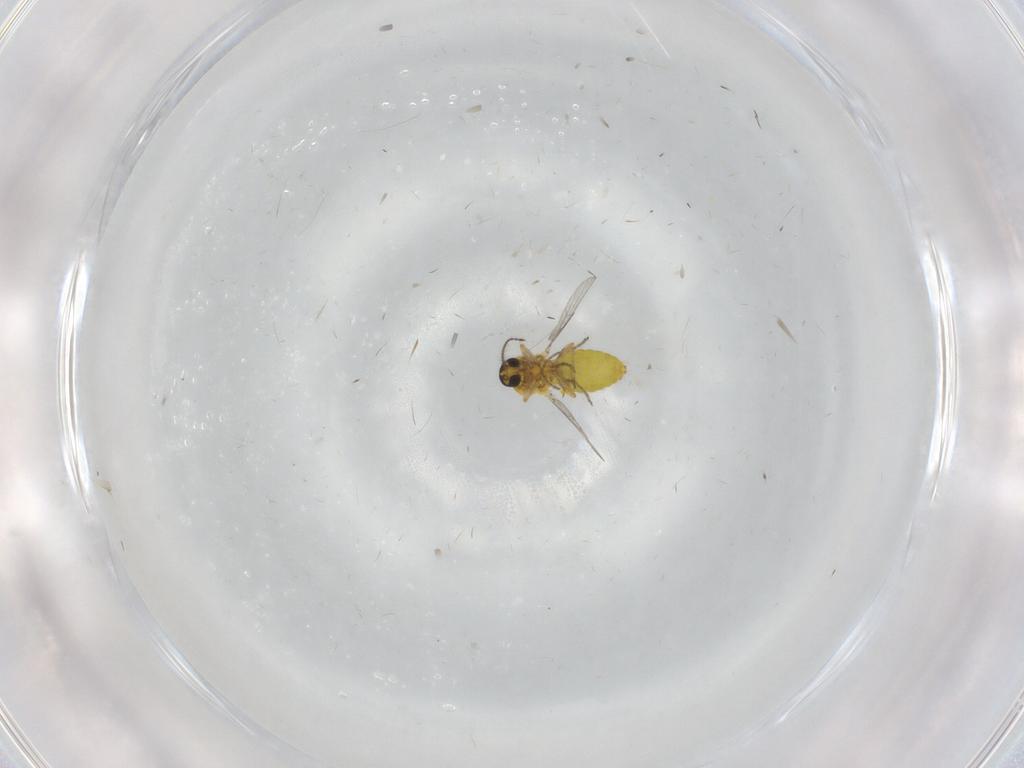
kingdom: Animalia
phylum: Arthropoda
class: Insecta
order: Diptera
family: Ceratopogonidae
